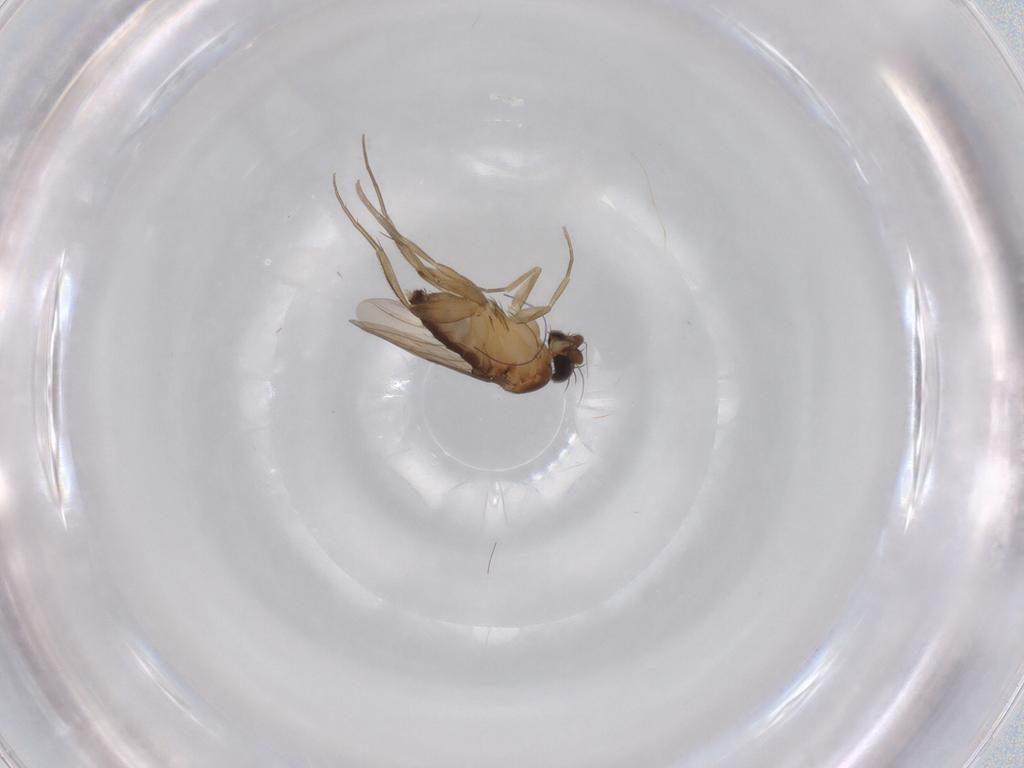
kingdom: Animalia
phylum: Arthropoda
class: Insecta
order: Diptera
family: Phoridae
